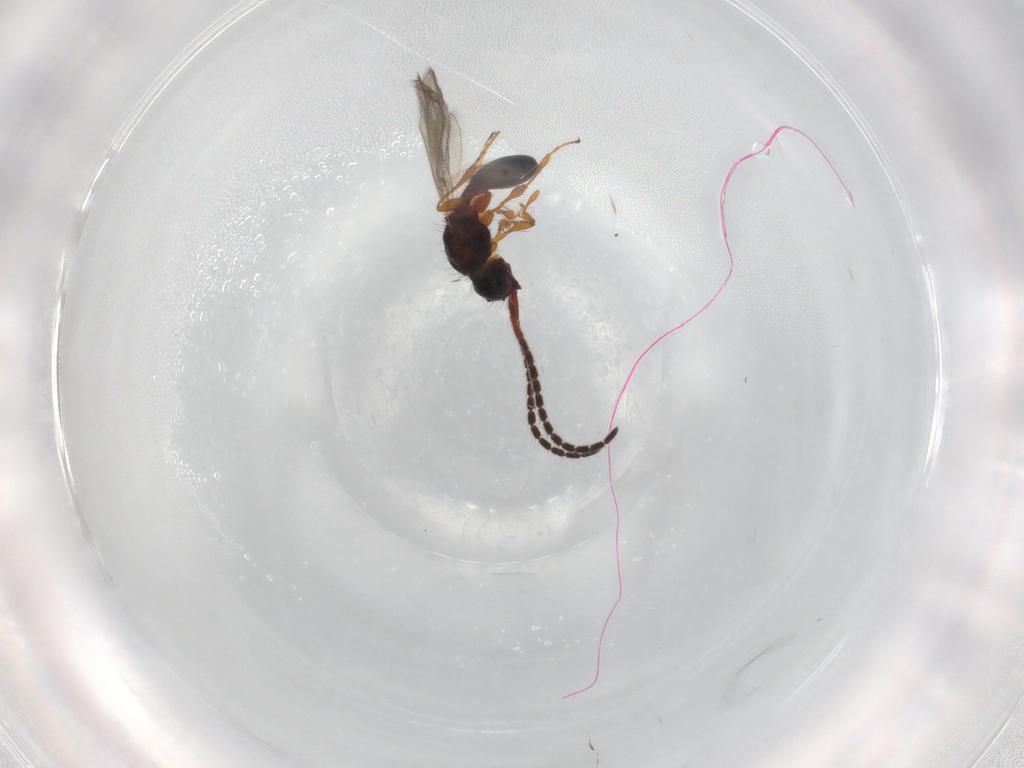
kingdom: Animalia
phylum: Arthropoda
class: Insecta
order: Hymenoptera
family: Diapriidae
